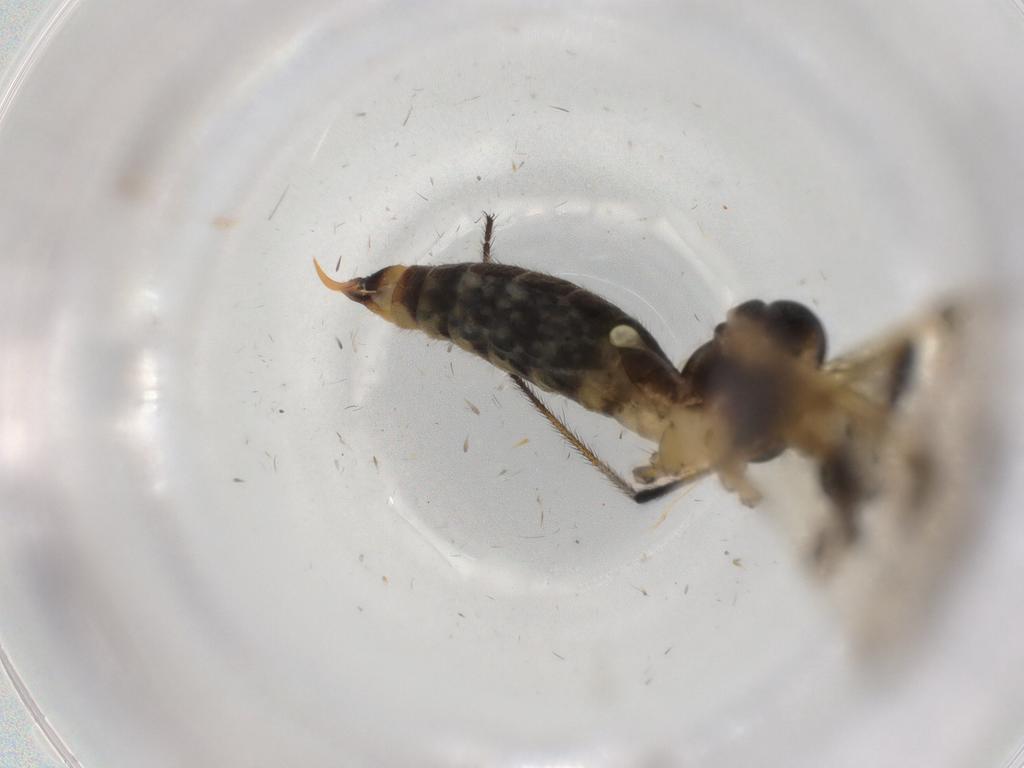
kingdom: Animalia
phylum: Arthropoda
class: Insecta
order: Diptera
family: Limoniidae
